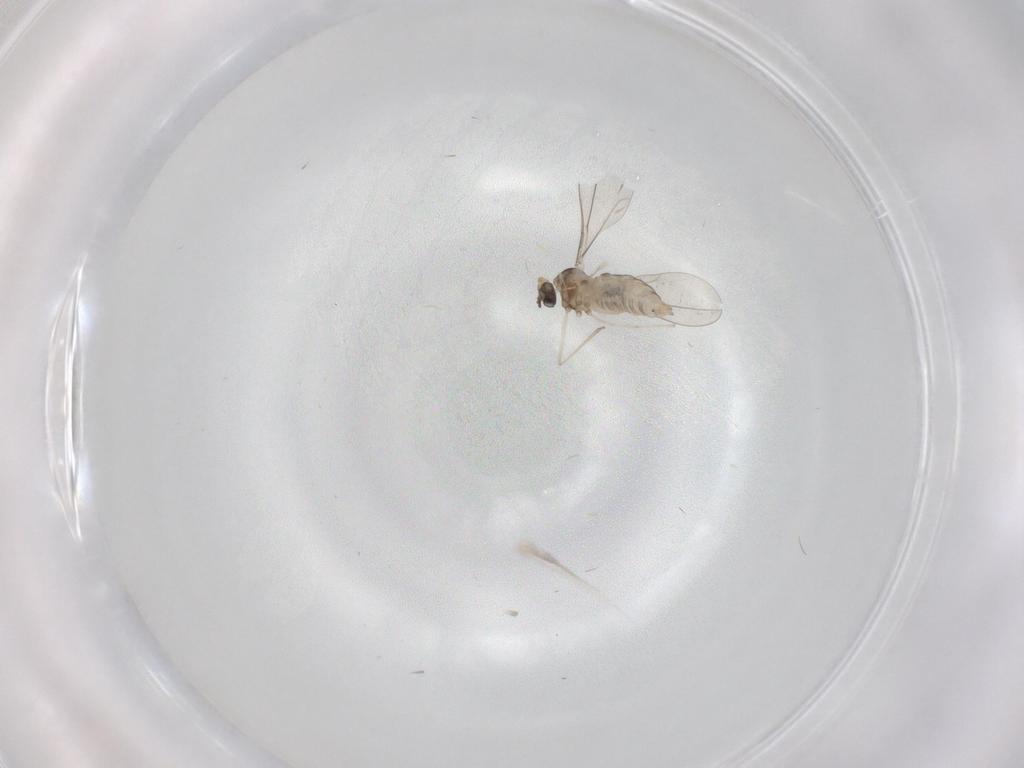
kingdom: Animalia
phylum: Arthropoda
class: Insecta
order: Diptera
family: Cecidomyiidae
